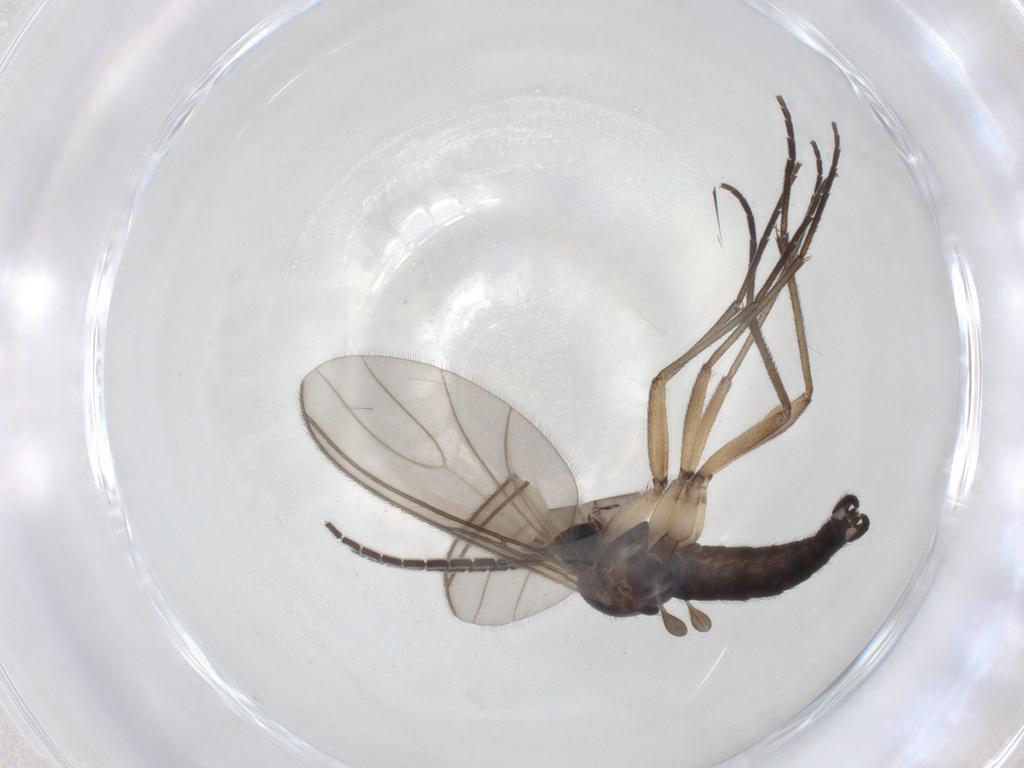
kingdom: Animalia
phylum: Arthropoda
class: Insecta
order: Diptera
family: Sciaridae
